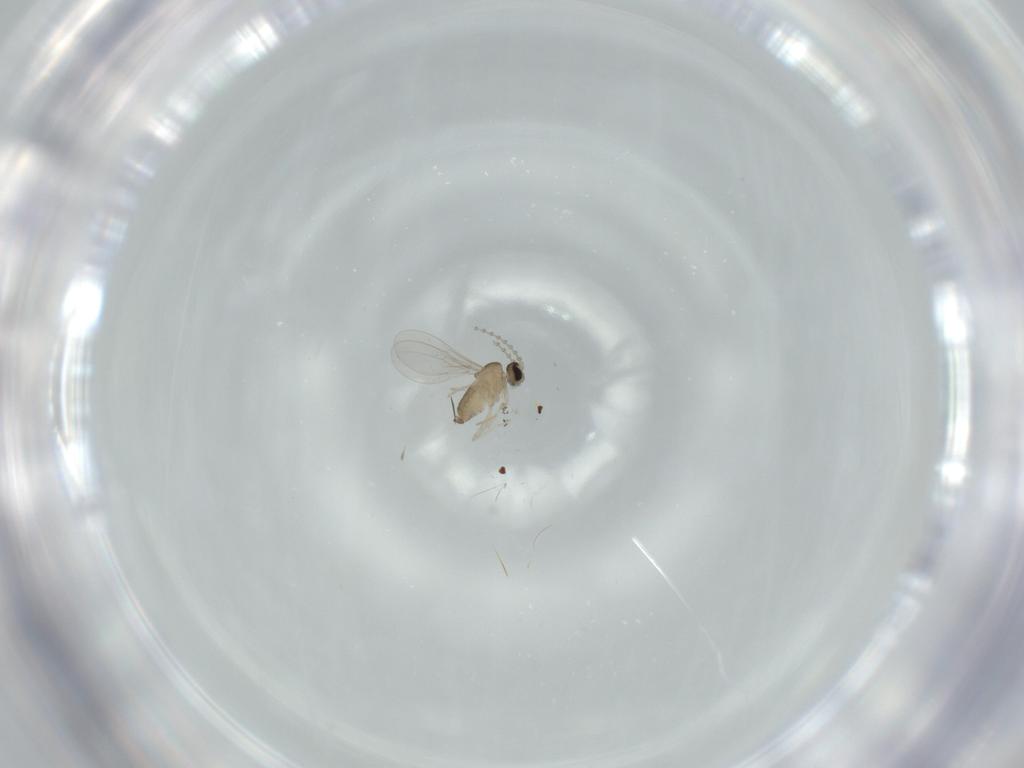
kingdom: Animalia
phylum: Arthropoda
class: Insecta
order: Diptera
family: Cecidomyiidae
